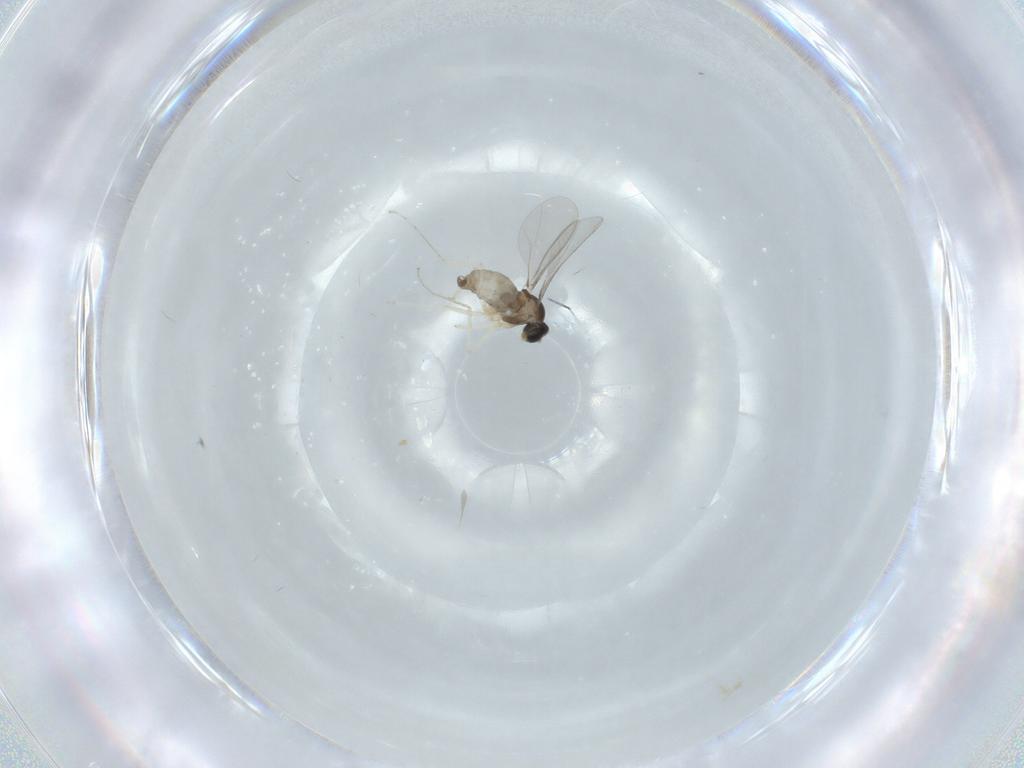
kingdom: Animalia
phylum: Arthropoda
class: Insecta
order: Diptera
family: Cecidomyiidae
